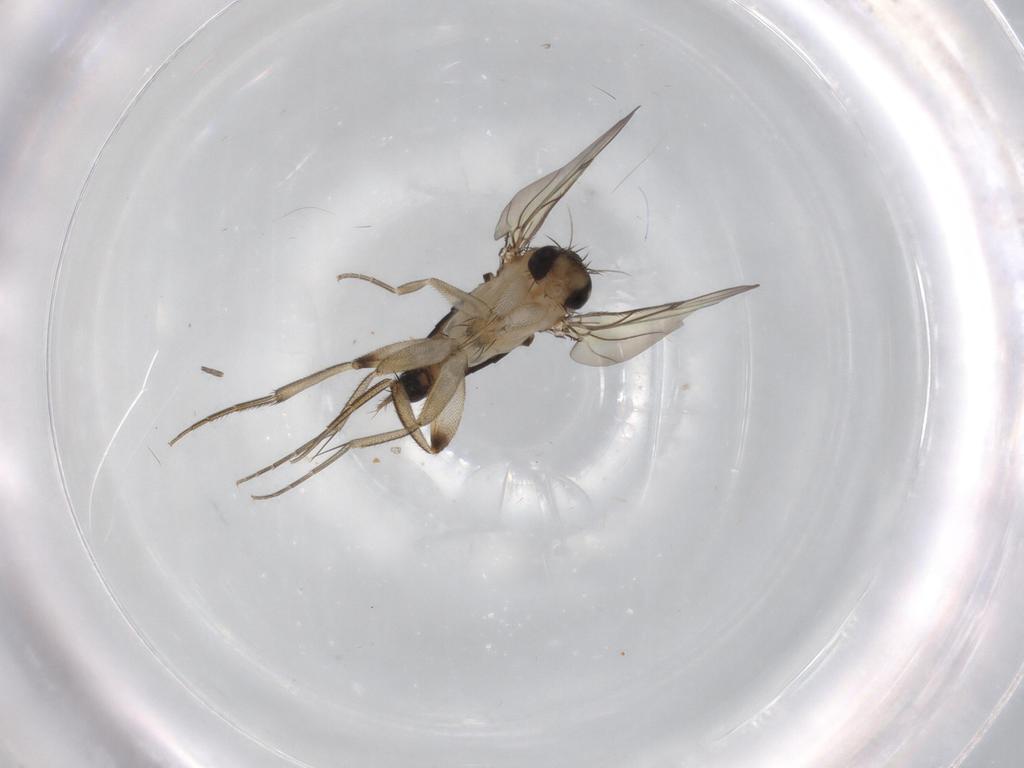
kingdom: Animalia
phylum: Arthropoda
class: Insecta
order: Diptera
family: Phoridae
